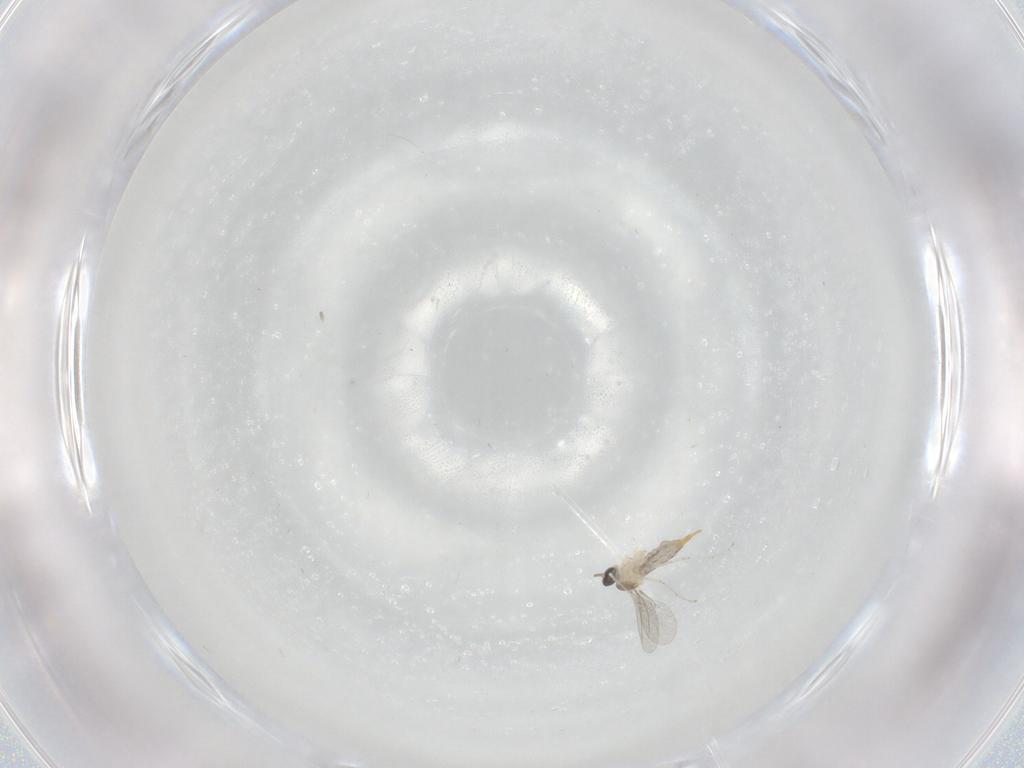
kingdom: Animalia
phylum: Arthropoda
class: Insecta
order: Diptera
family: Cecidomyiidae
